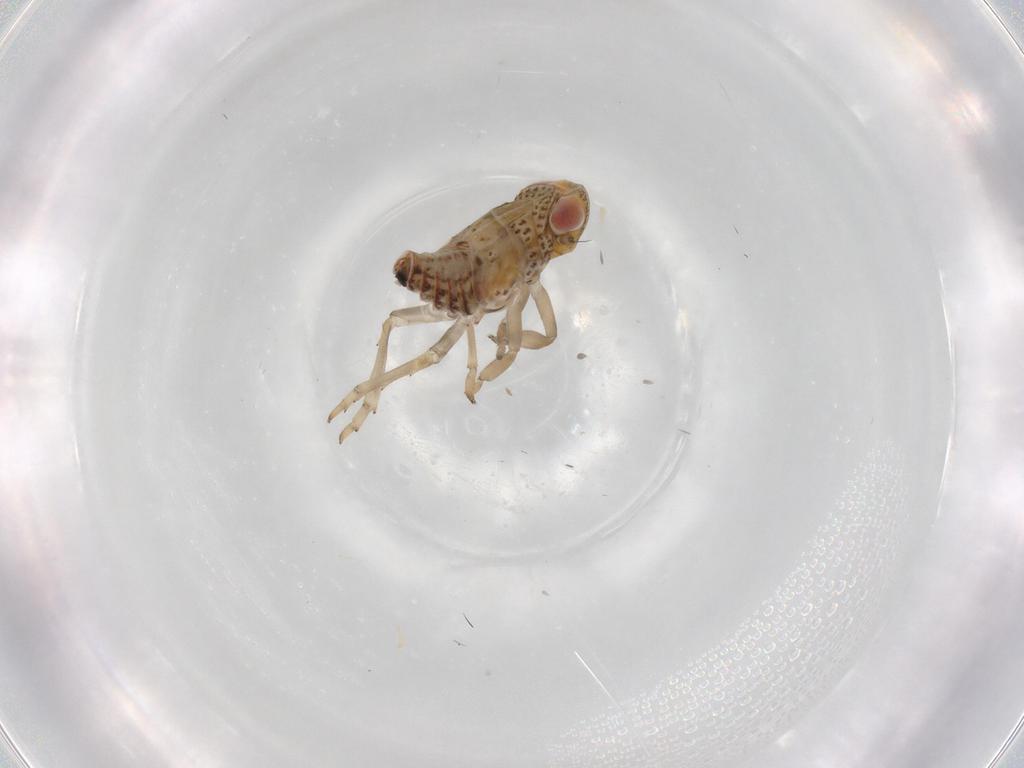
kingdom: Animalia
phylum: Arthropoda
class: Insecta
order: Hemiptera
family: Issidae
